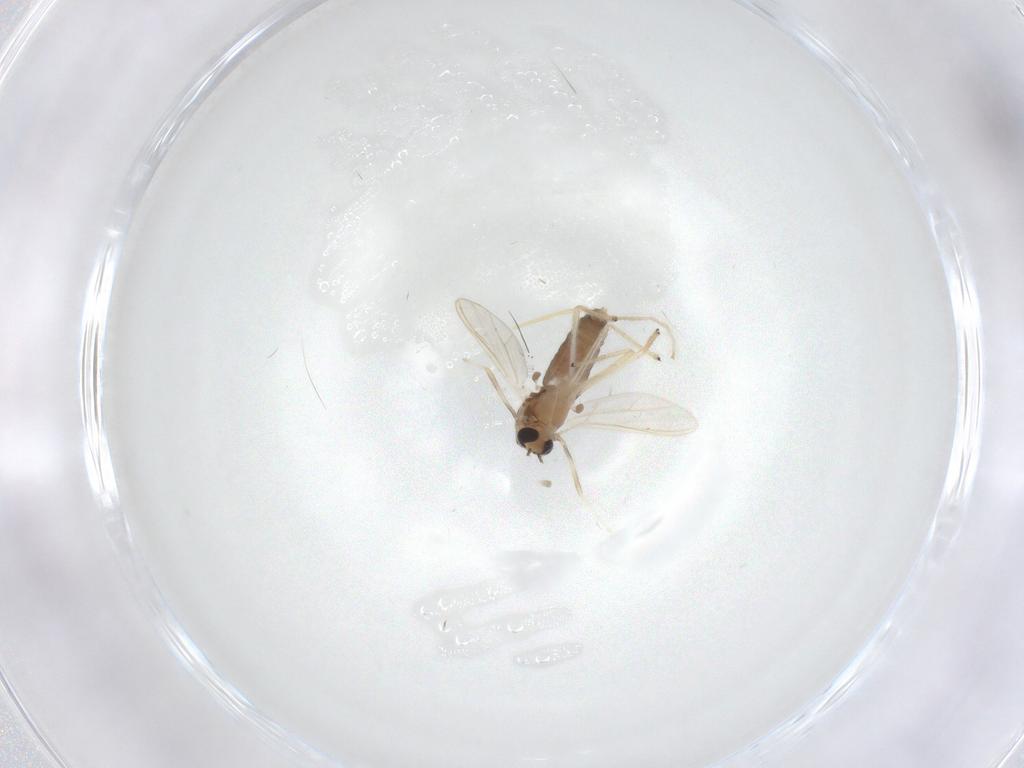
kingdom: Animalia
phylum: Arthropoda
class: Insecta
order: Diptera
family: Chironomidae
